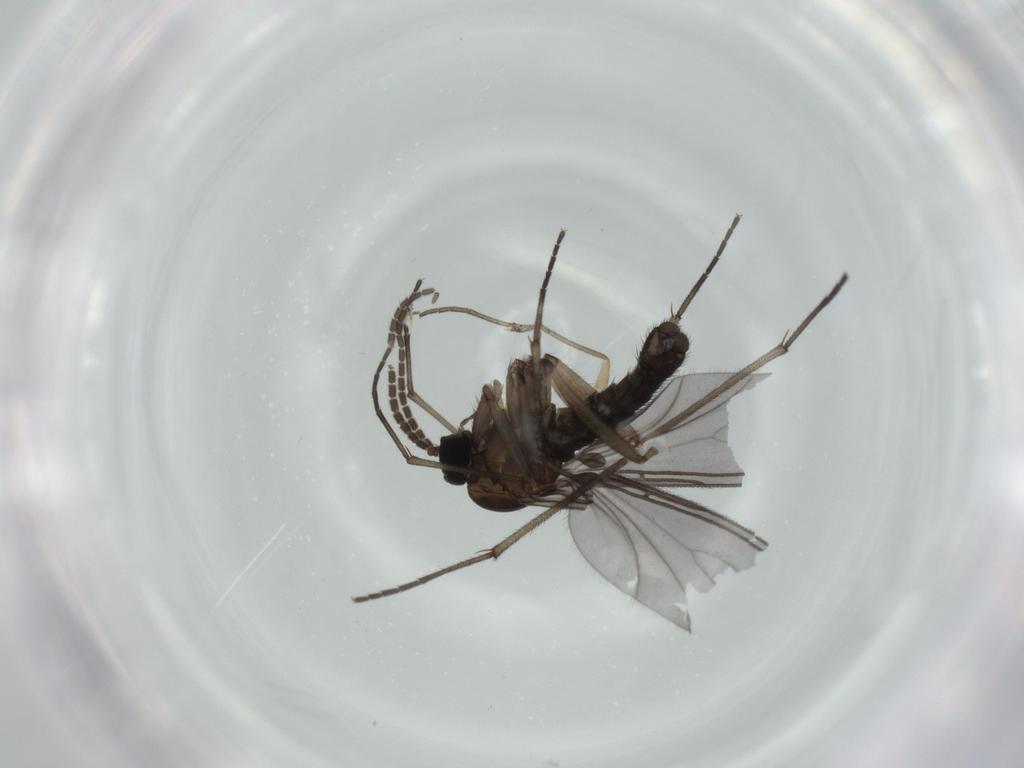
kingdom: Animalia
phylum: Arthropoda
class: Insecta
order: Diptera
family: Sciaridae
